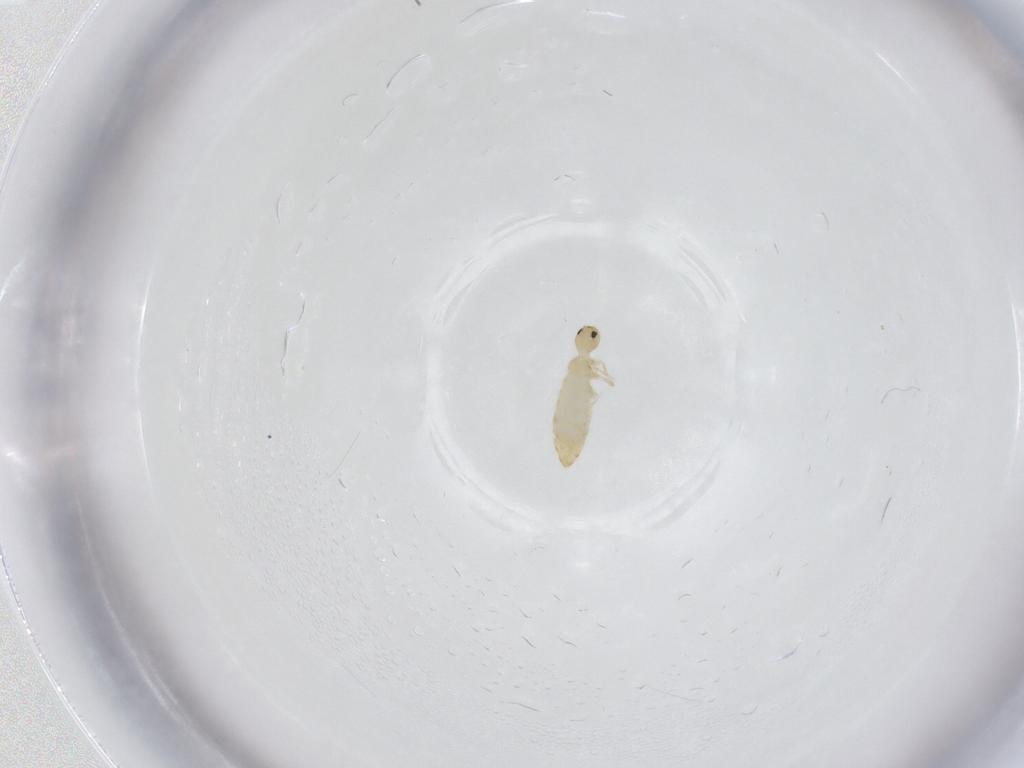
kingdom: Animalia
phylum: Arthropoda
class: Collembola
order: Entomobryomorpha
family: Entomobryidae
